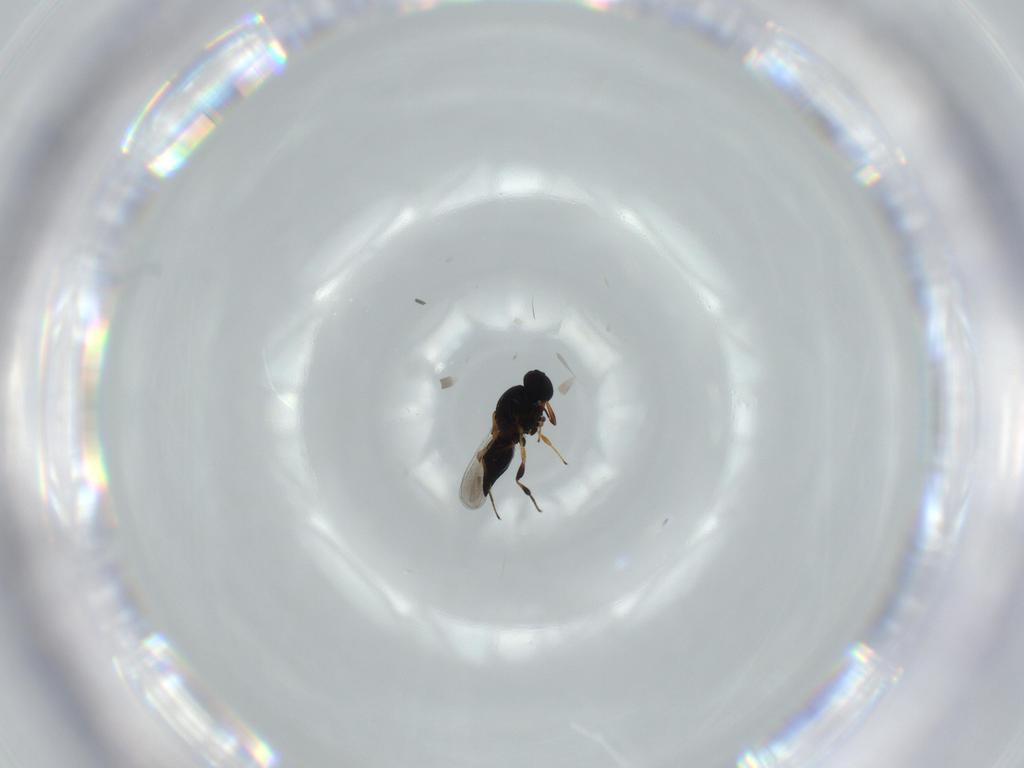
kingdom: Animalia
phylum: Arthropoda
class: Insecta
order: Hymenoptera
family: Platygastridae
